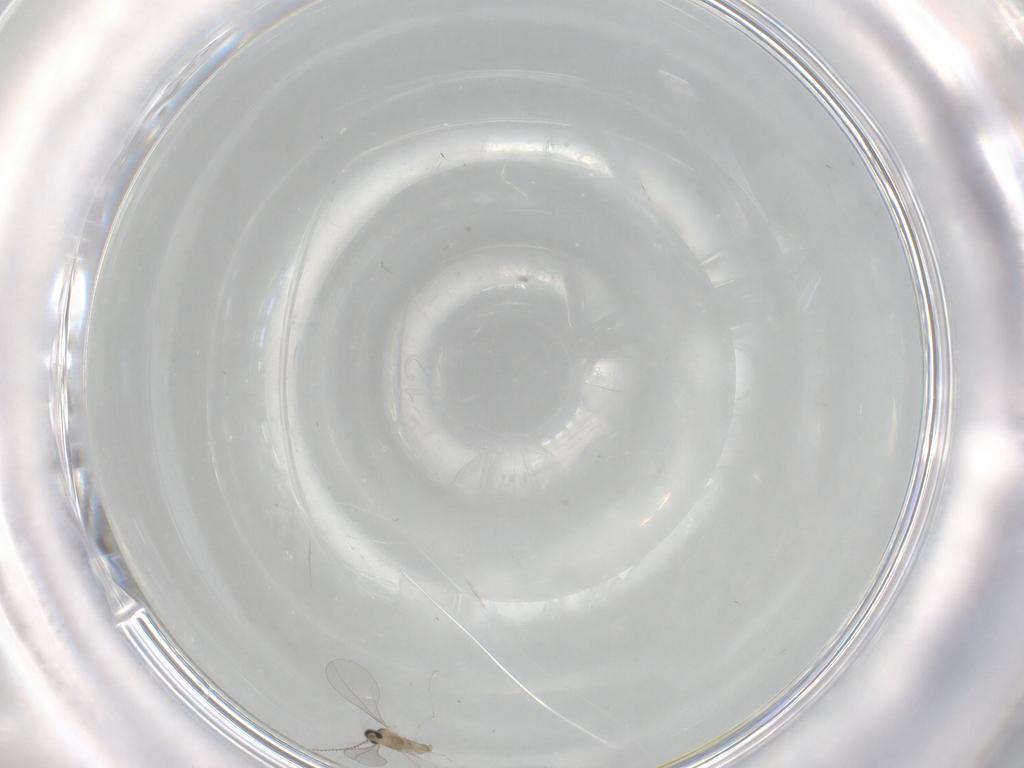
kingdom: Animalia
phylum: Arthropoda
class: Insecta
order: Diptera
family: Cecidomyiidae
